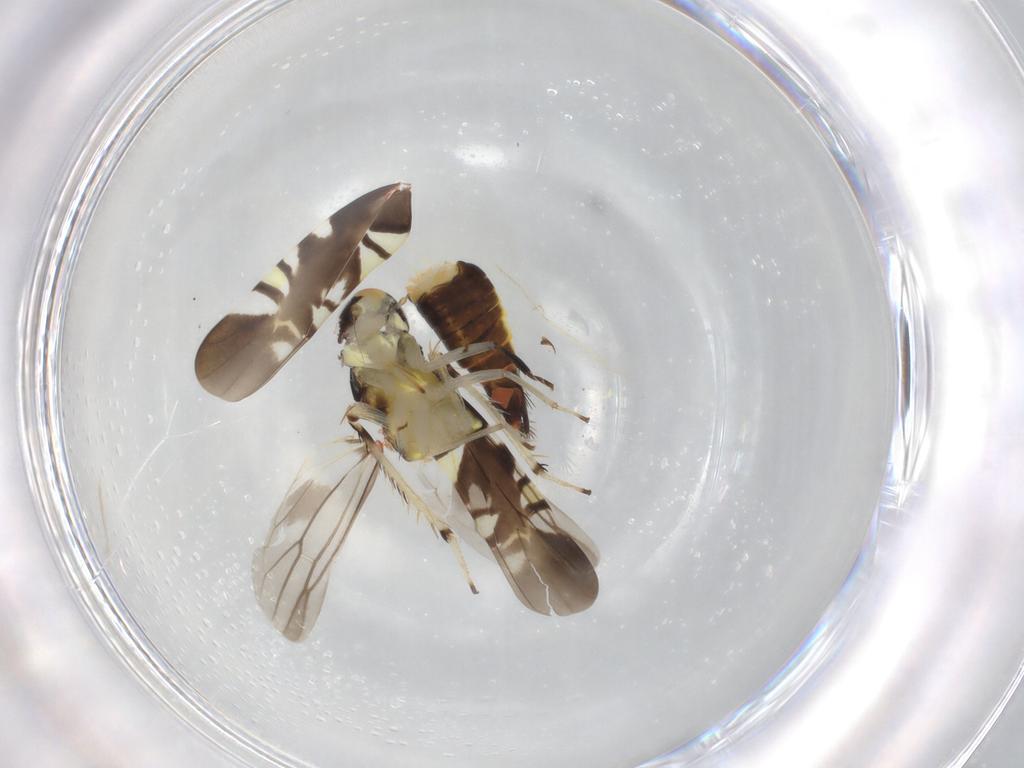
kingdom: Animalia
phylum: Arthropoda
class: Insecta
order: Hemiptera
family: Cicadellidae
